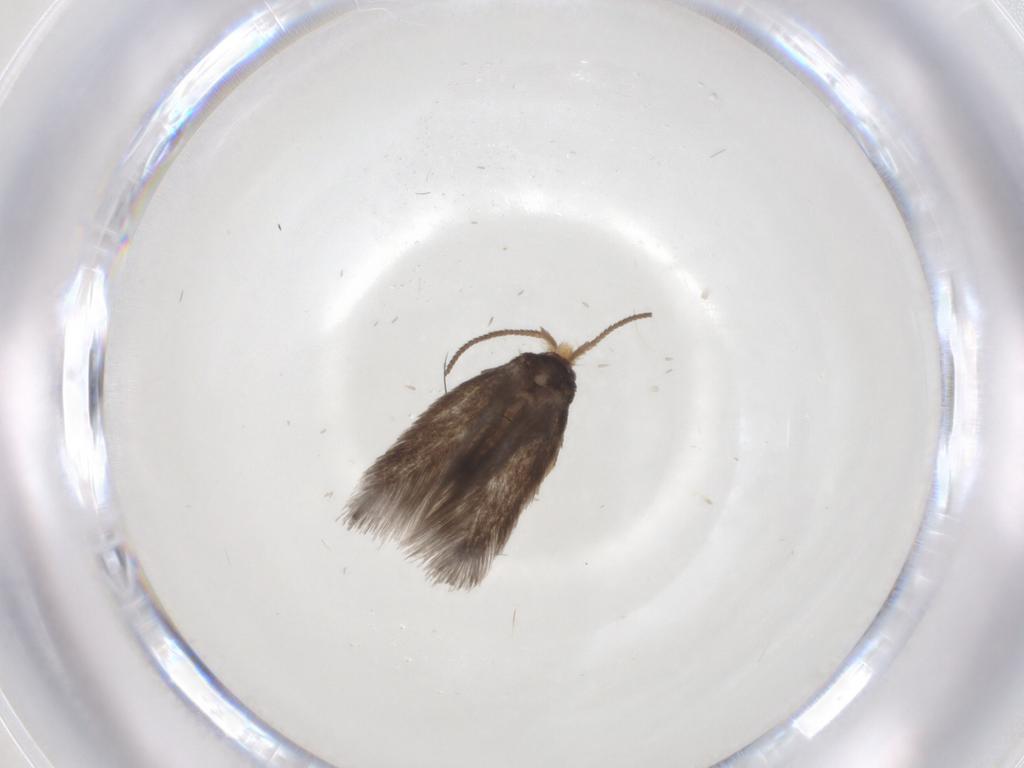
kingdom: Animalia
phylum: Arthropoda
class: Insecta
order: Lepidoptera
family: Nepticulidae
